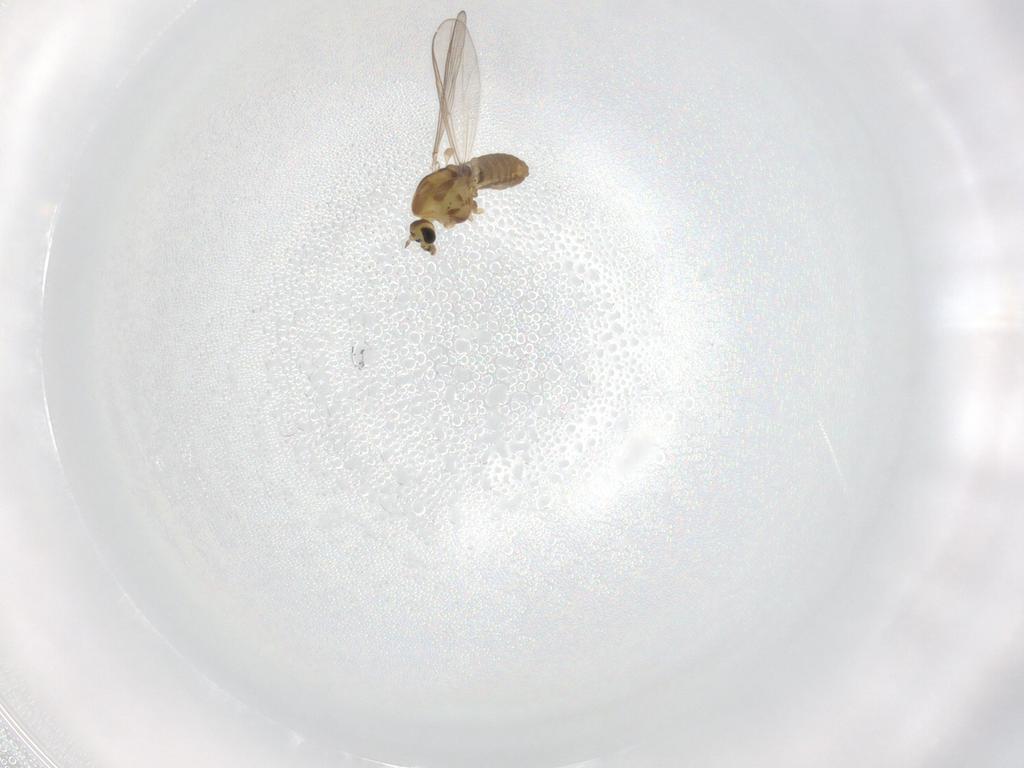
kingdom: Animalia
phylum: Arthropoda
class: Insecta
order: Diptera
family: Chironomidae
